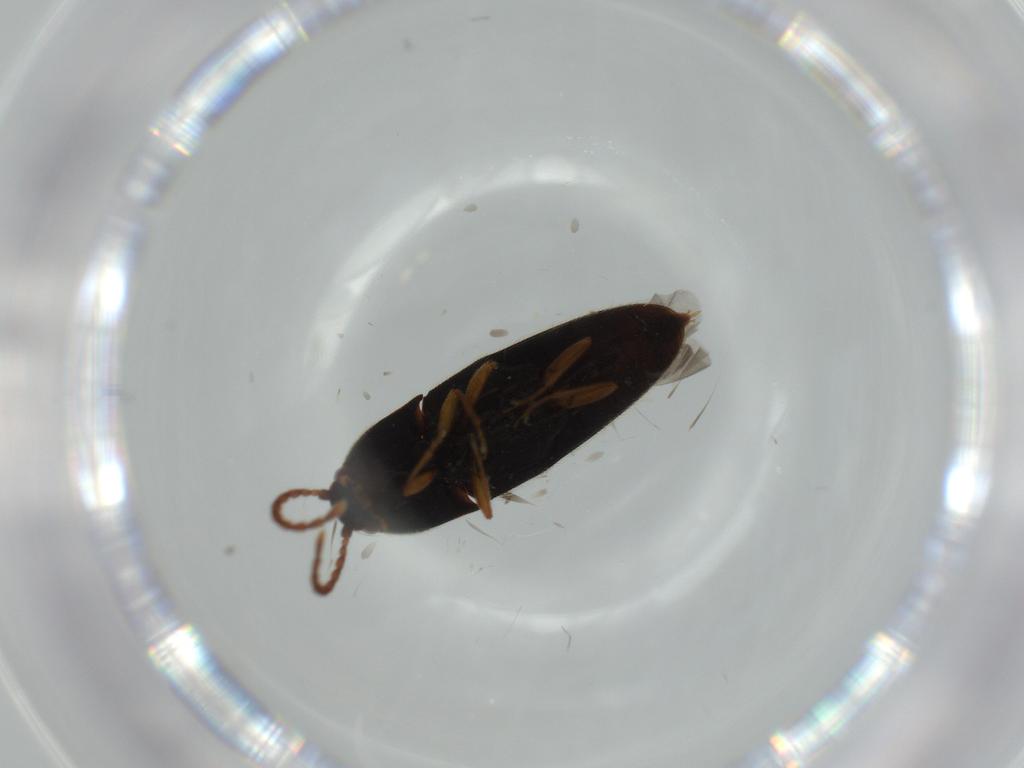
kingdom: Animalia
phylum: Arthropoda
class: Insecta
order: Coleoptera
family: Elateridae
